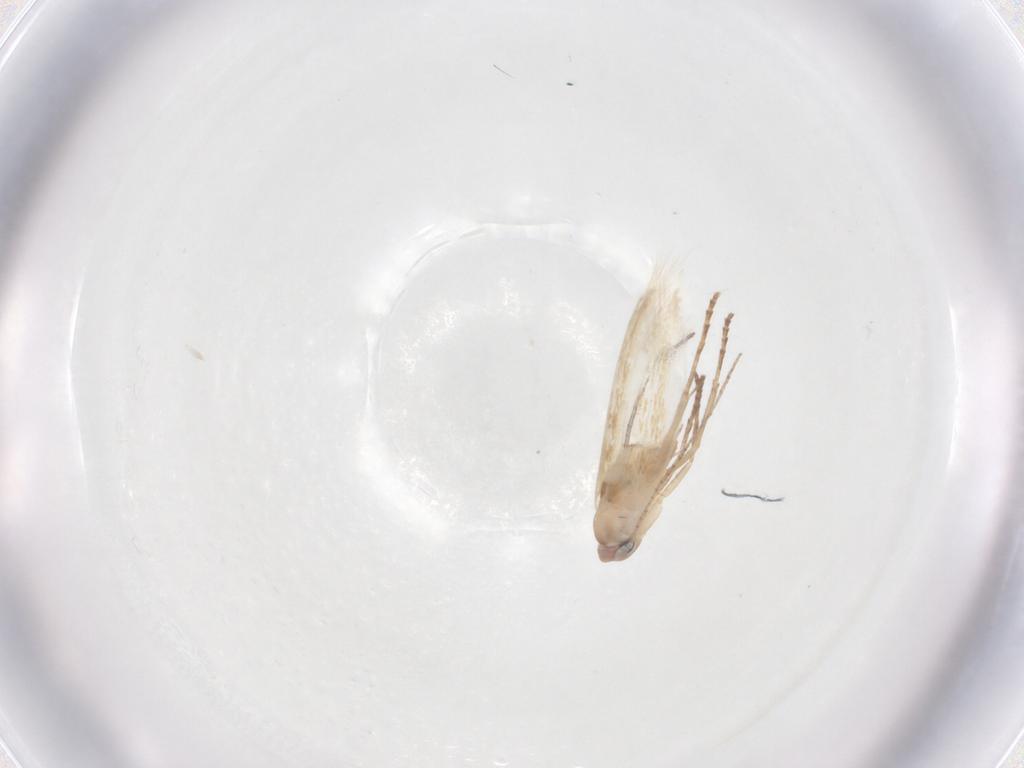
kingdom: Animalia
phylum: Arthropoda
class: Insecta
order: Lepidoptera
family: Bucculatricidae
